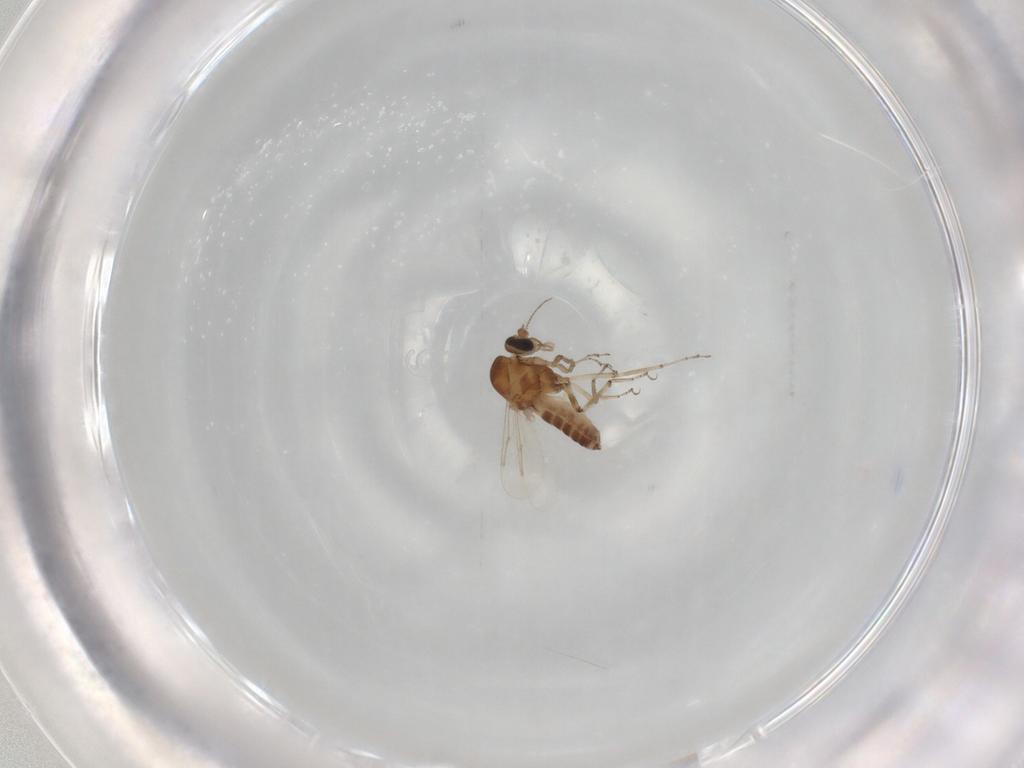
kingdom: Animalia
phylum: Arthropoda
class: Insecta
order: Diptera
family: Ceratopogonidae
